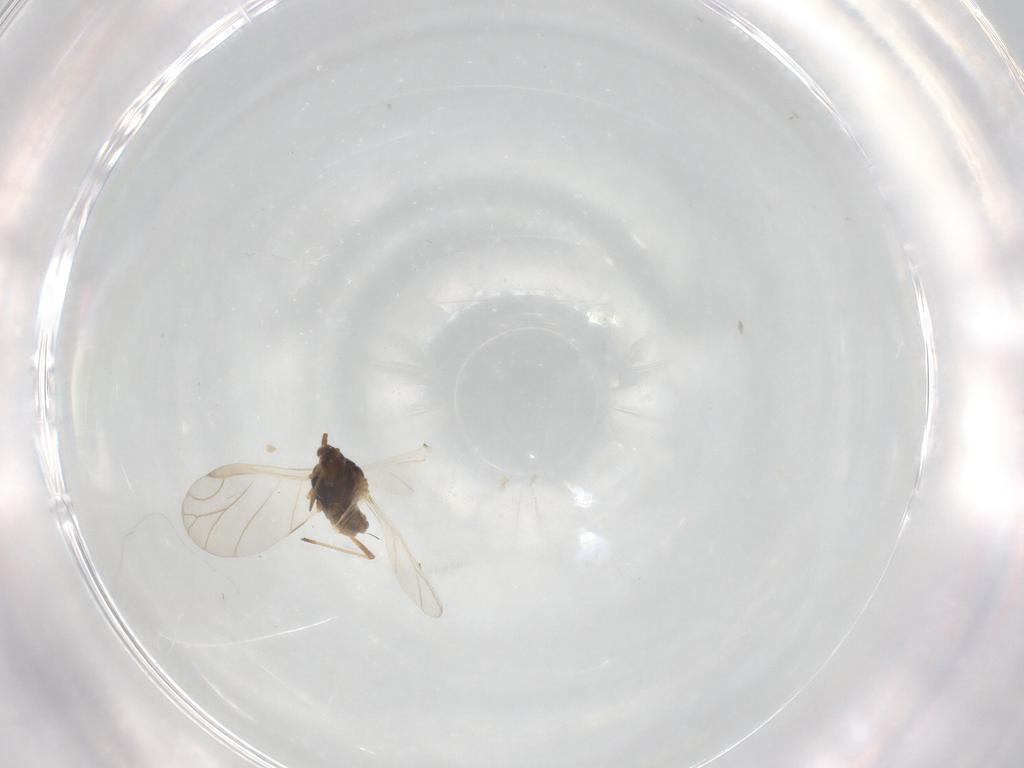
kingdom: Animalia
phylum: Arthropoda
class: Insecta
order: Hemiptera
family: Aphididae
